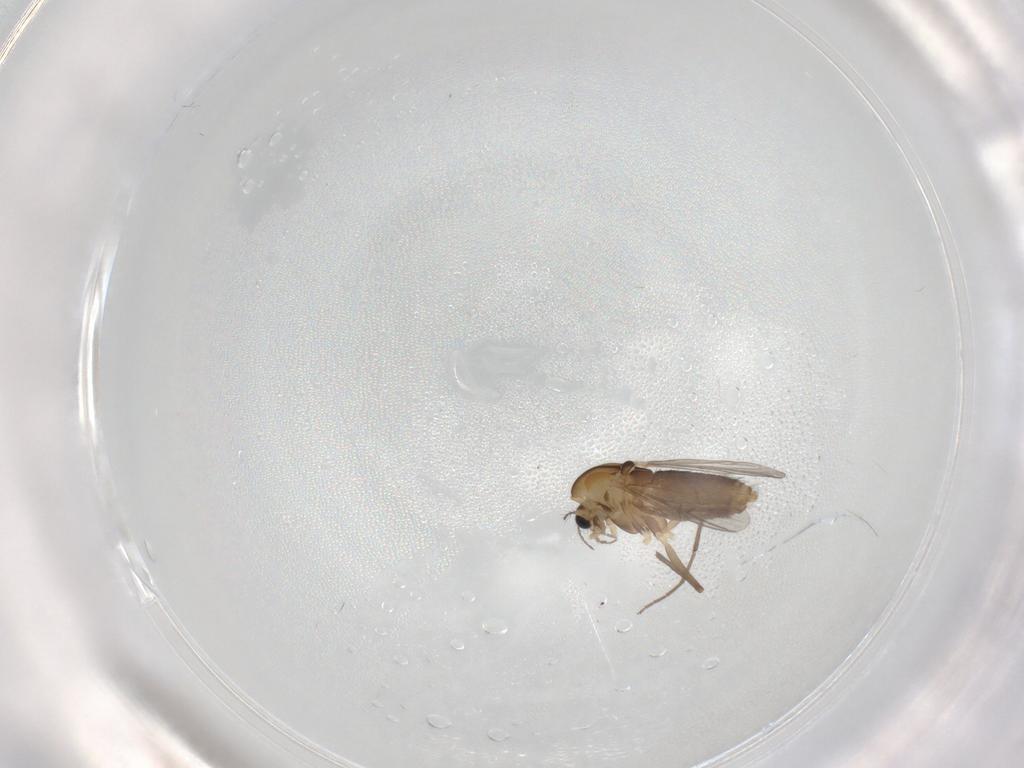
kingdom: Animalia
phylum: Arthropoda
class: Insecta
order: Diptera
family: Chironomidae
